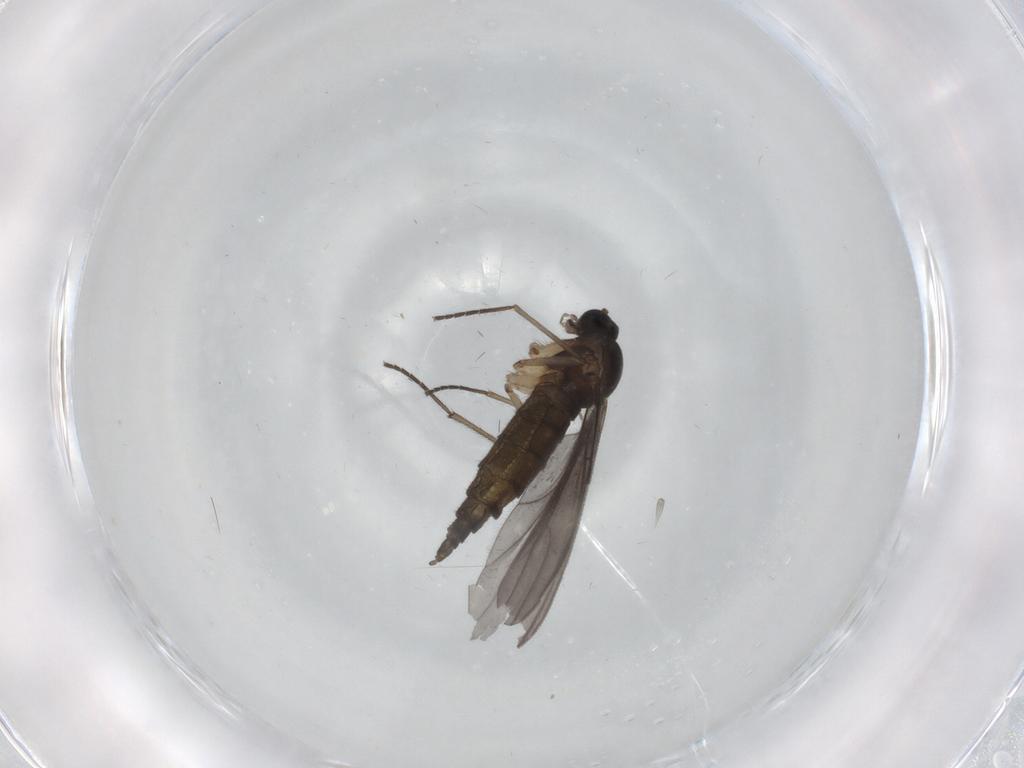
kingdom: Animalia
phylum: Arthropoda
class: Insecta
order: Diptera
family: Sciaridae
